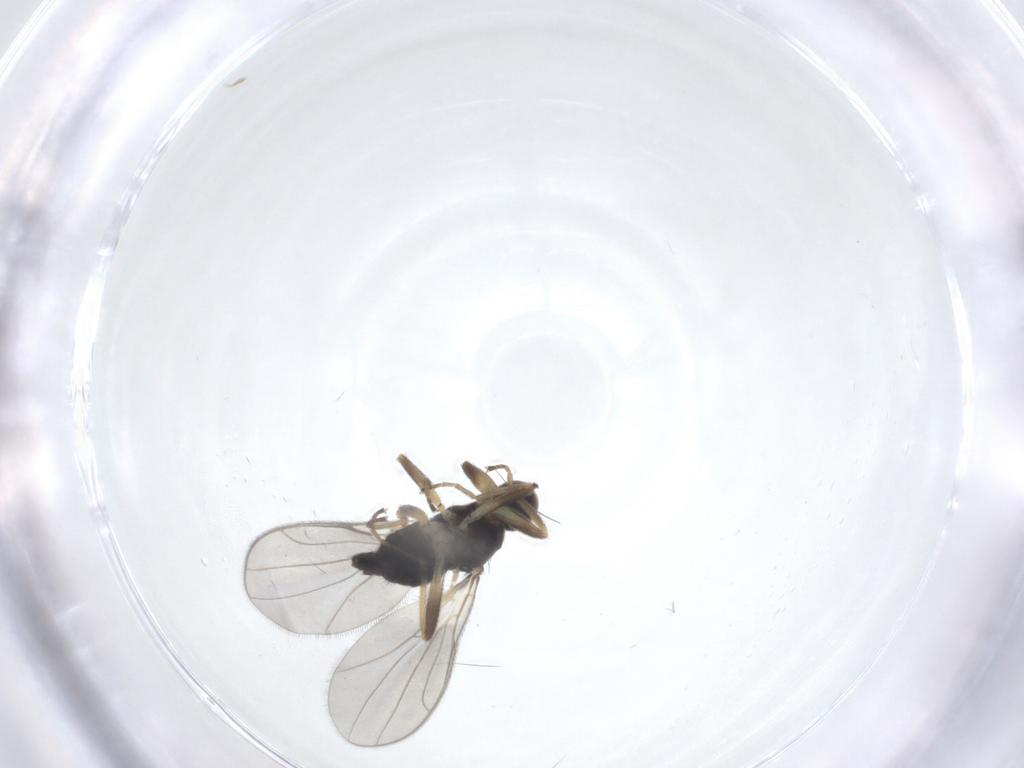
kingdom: Animalia
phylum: Arthropoda
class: Insecta
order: Diptera
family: Hybotidae
